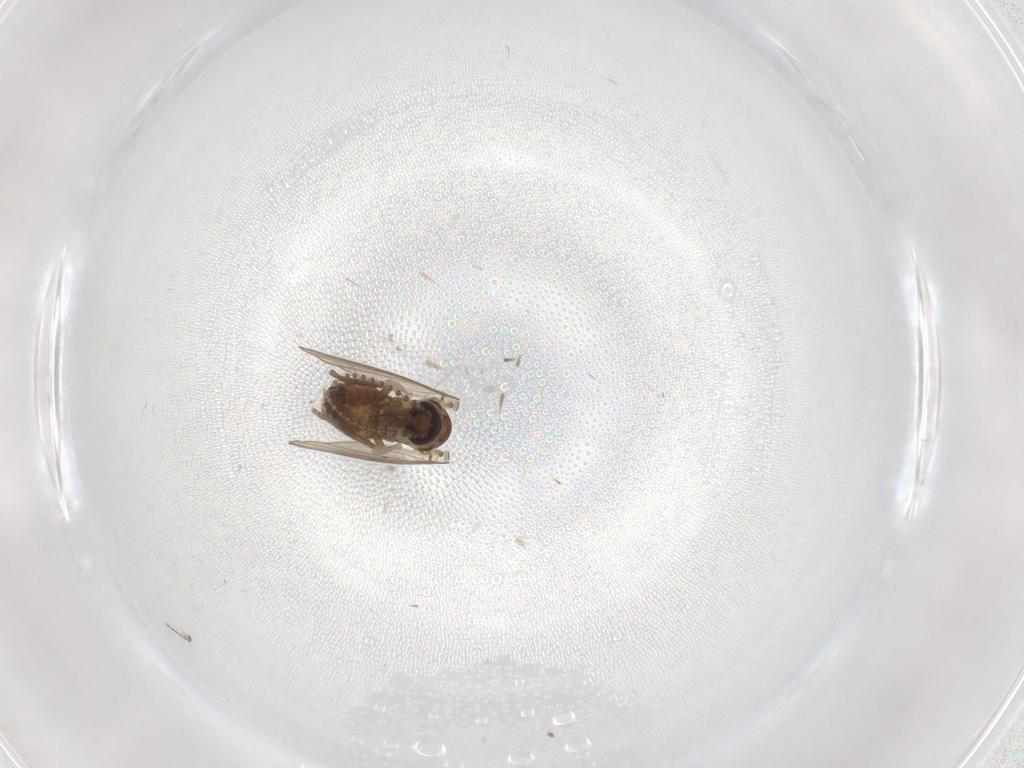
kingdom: Animalia
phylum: Arthropoda
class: Insecta
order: Diptera
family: Cecidomyiidae
